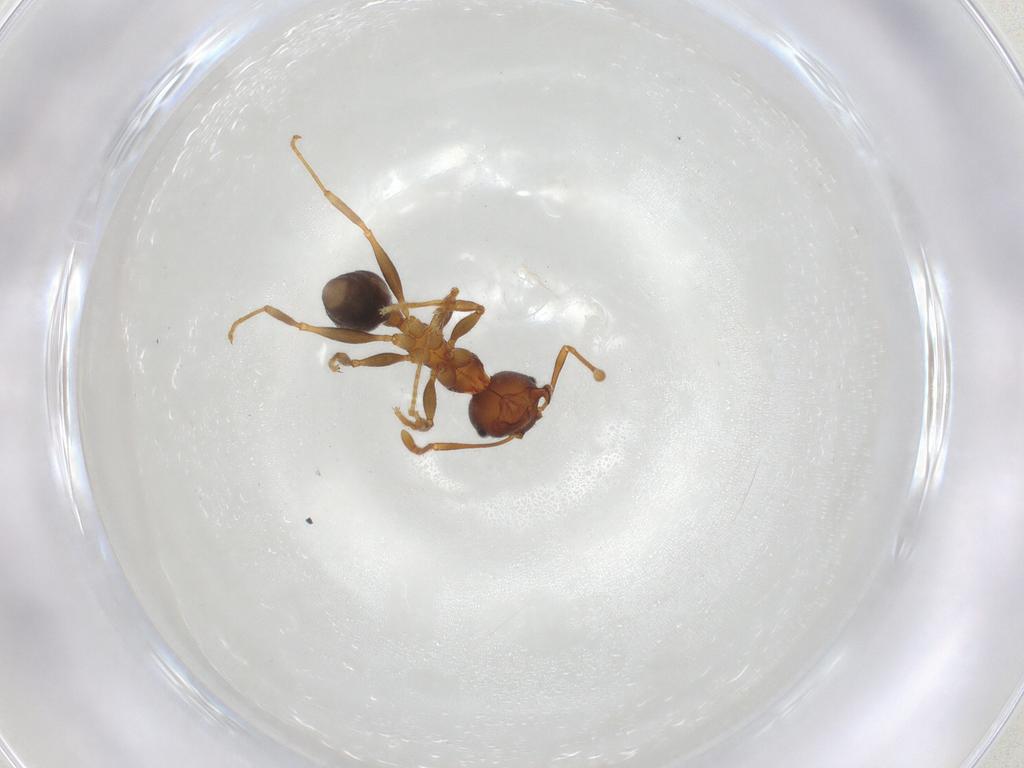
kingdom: Animalia
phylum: Arthropoda
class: Insecta
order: Hymenoptera
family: Formicidae
